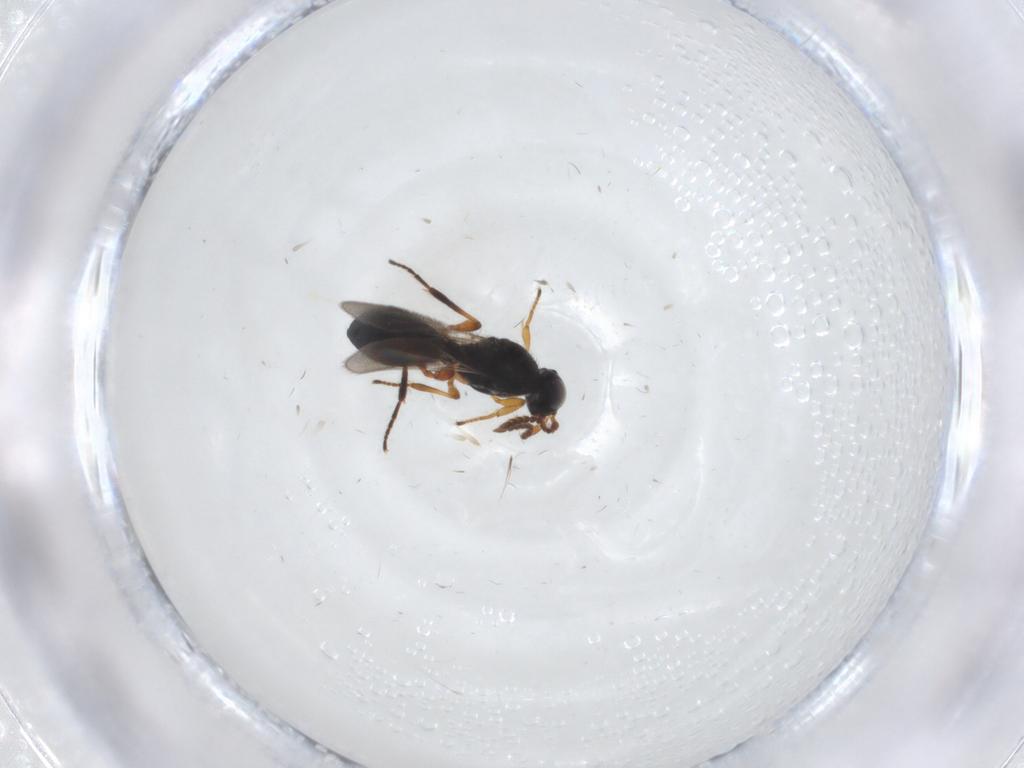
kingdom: Animalia
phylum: Arthropoda
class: Insecta
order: Hymenoptera
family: Platygastridae
